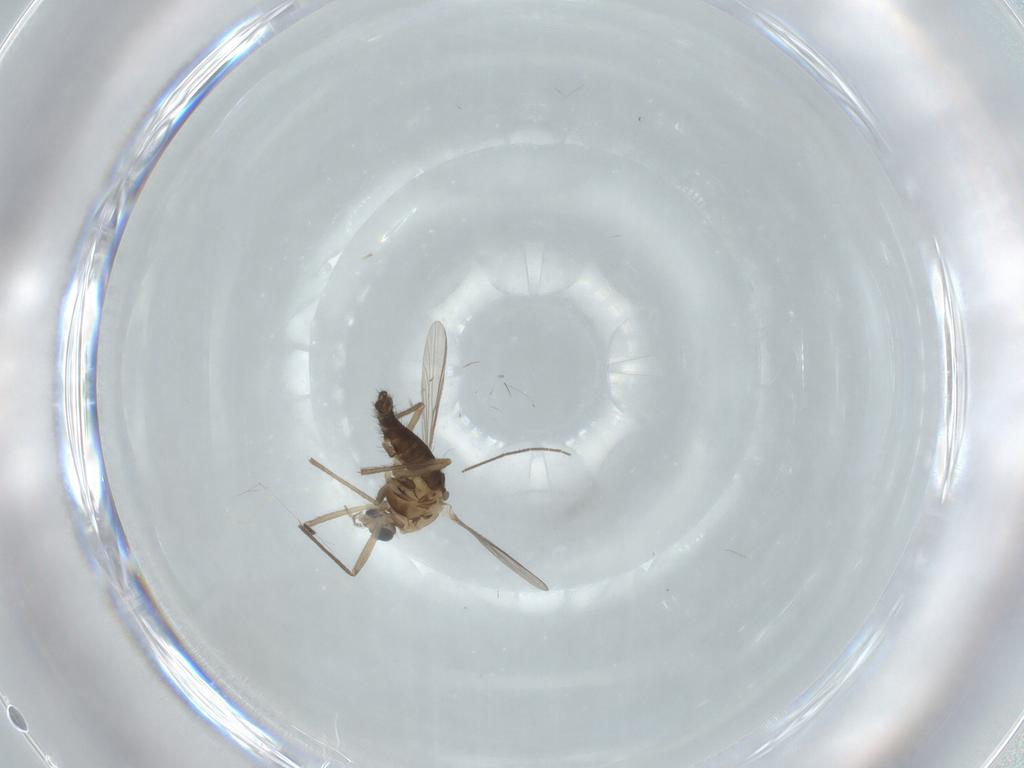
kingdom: Animalia
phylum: Arthropoda
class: Insecta
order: Diptera
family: Chironomidae
